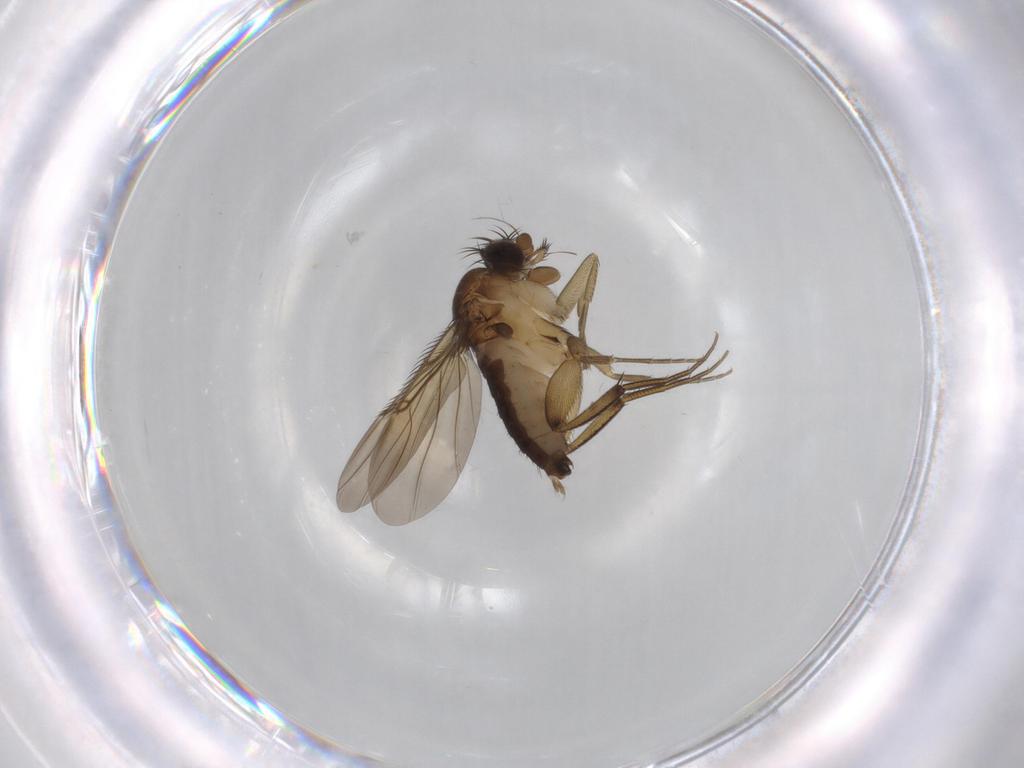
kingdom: Animalia
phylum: Arthropoda
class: Insecta
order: Diptera
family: Phoridae
